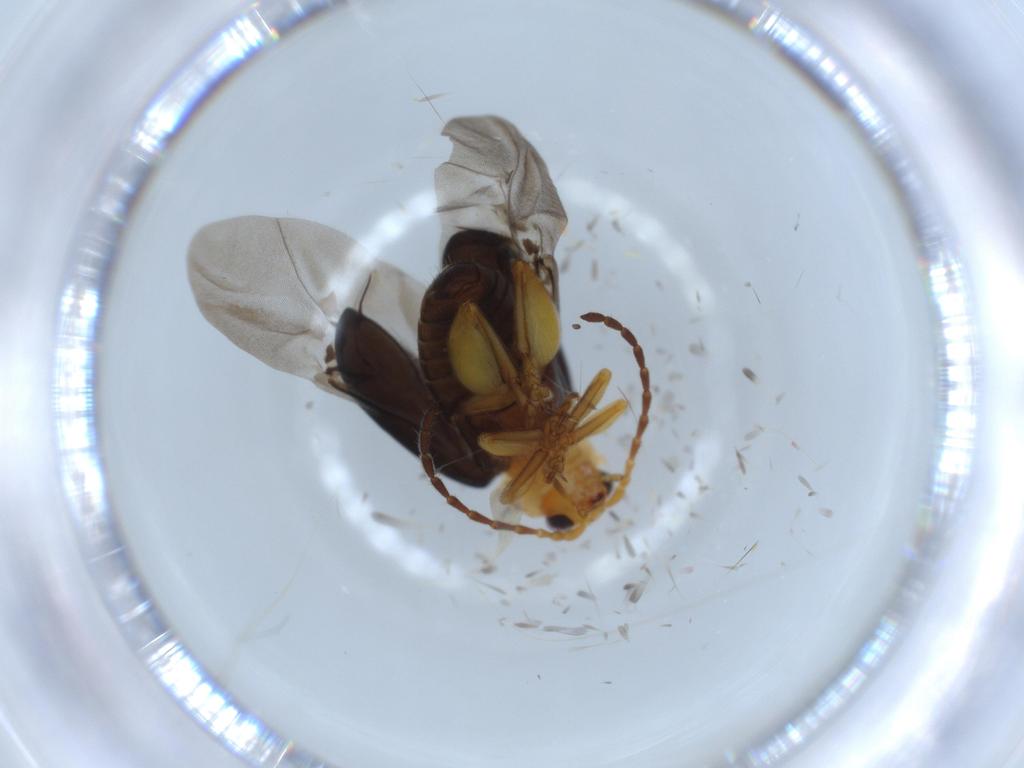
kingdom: Animalia
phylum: Arthropoda
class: Insecta
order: Coleoptera
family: Chrysomelidae
